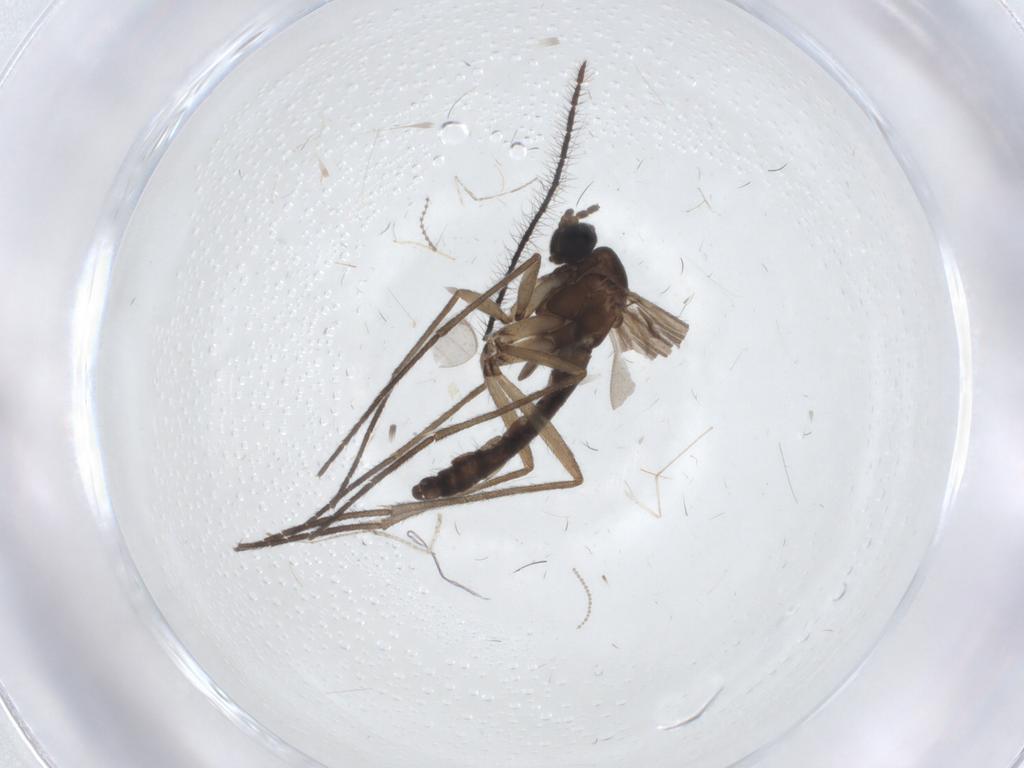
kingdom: Animalia
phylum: Arthropoda
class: Insecta
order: Diptera
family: Sciaridae
